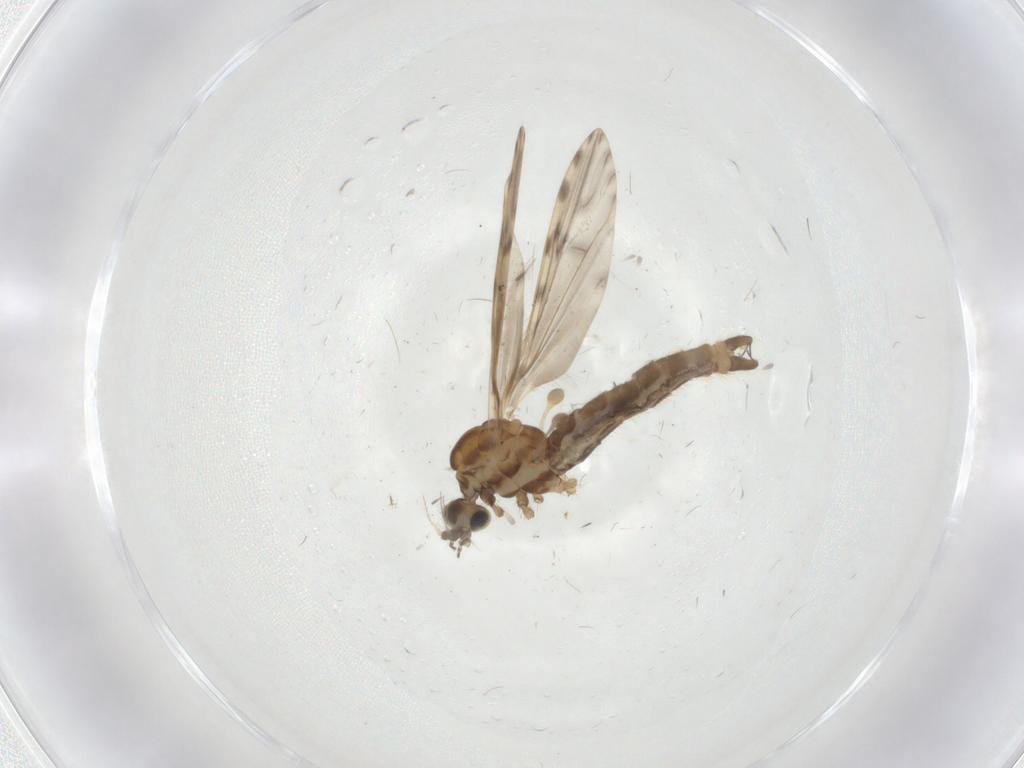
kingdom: Animalia
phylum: Arthropoda
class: Insecta
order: Diptera
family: Limoniidae
